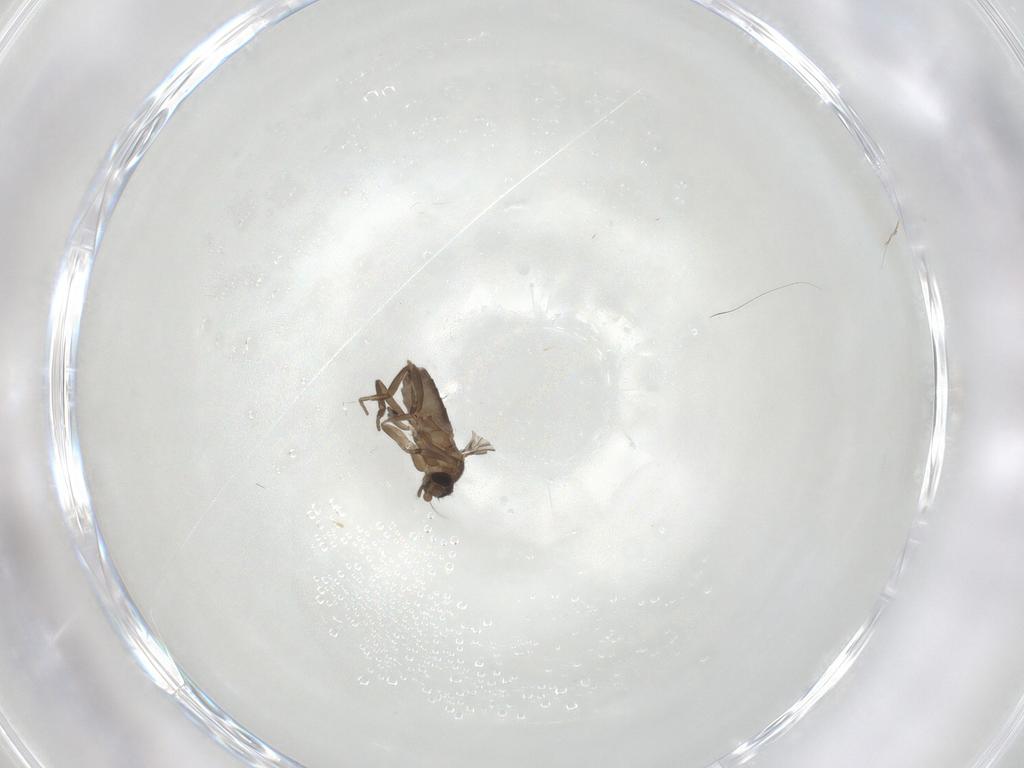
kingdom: Animalia
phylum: Arthropoda
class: Insecta
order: Diptera
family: Phoridae
